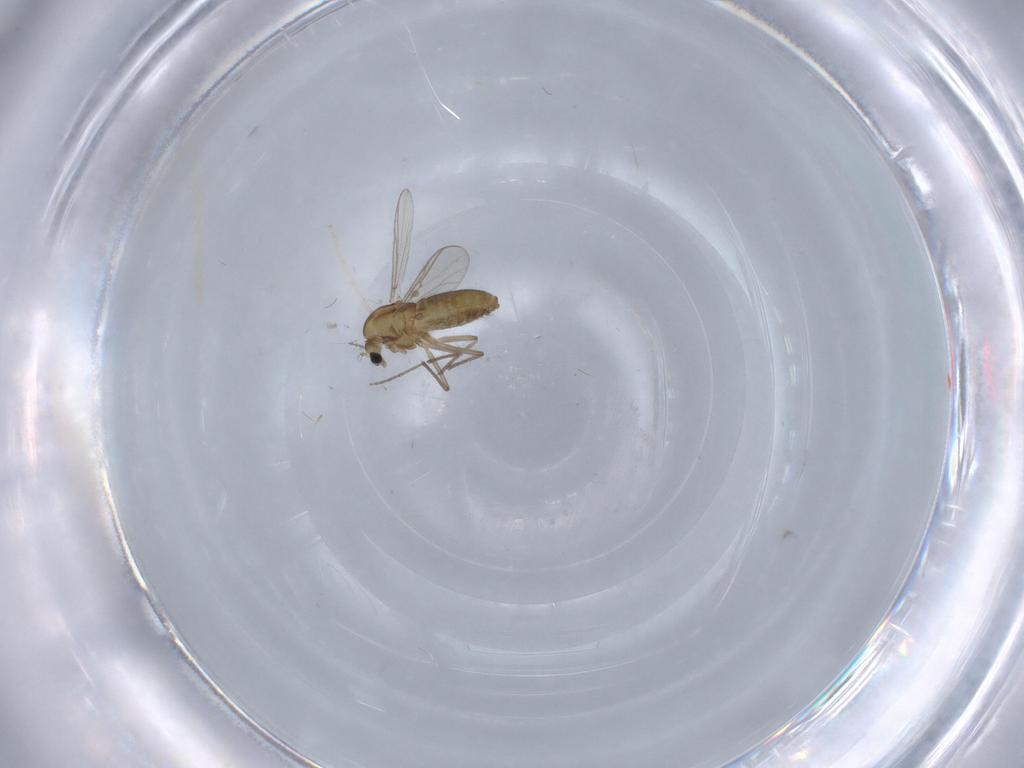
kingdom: Animalia
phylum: Arthropoda
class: Insecta
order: Diptera
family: Chironomidae
